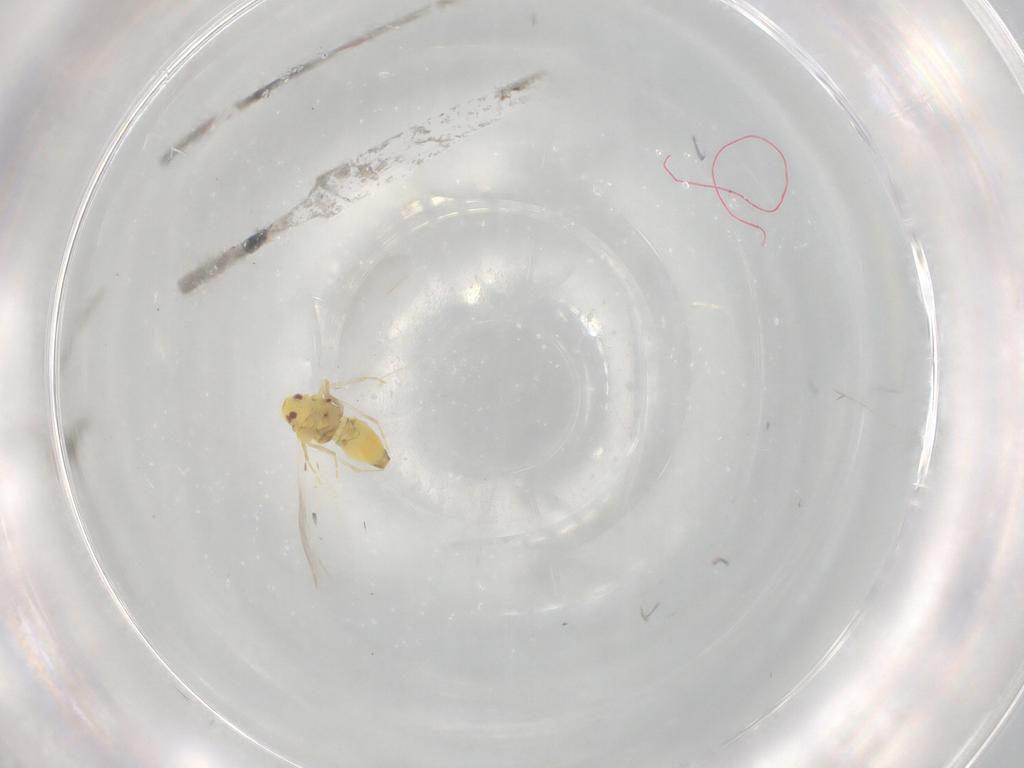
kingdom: Animalia
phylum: Arthropoda
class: Insecta
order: Hemiptera
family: Aleyrodidae
